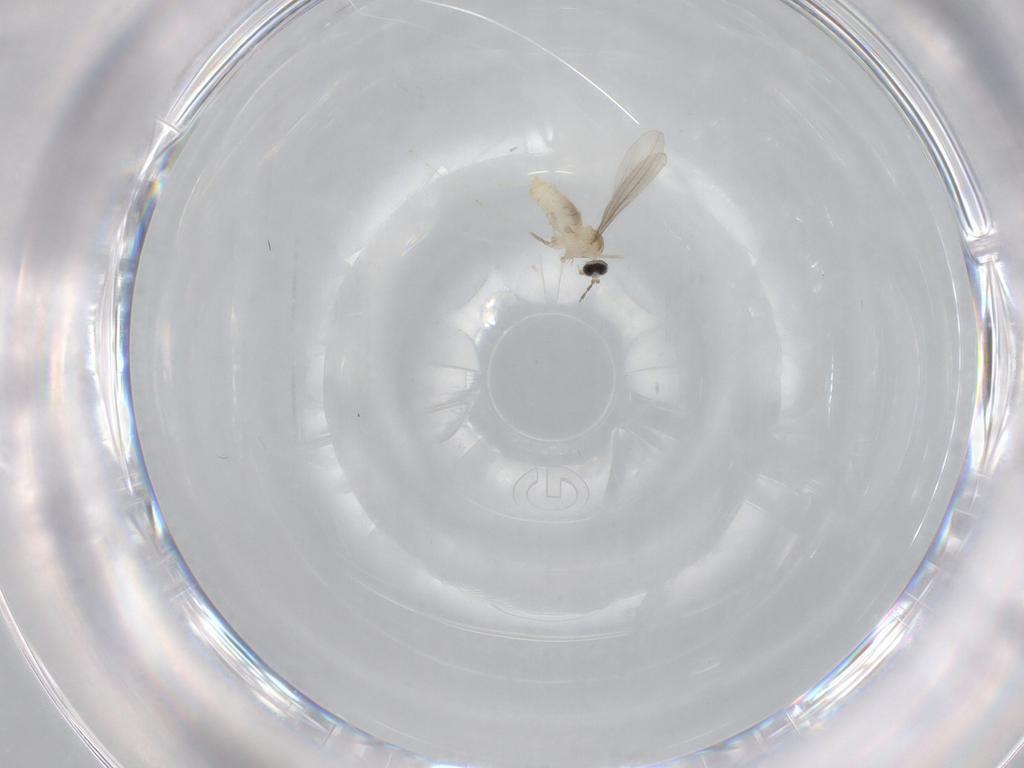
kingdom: Animalia
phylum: Arthropoda
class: Insecta
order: Diptera
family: Cecidomyiidae
